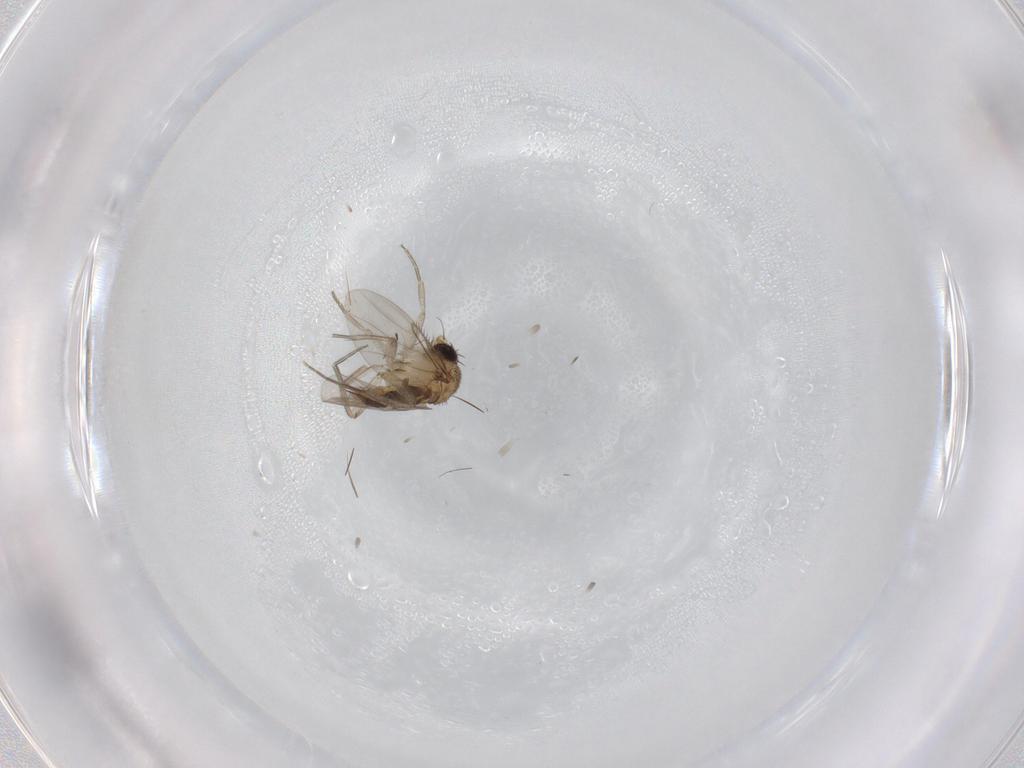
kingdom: Animalia
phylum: Arthropoda
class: Insecta
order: Diptera
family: Phoridae
